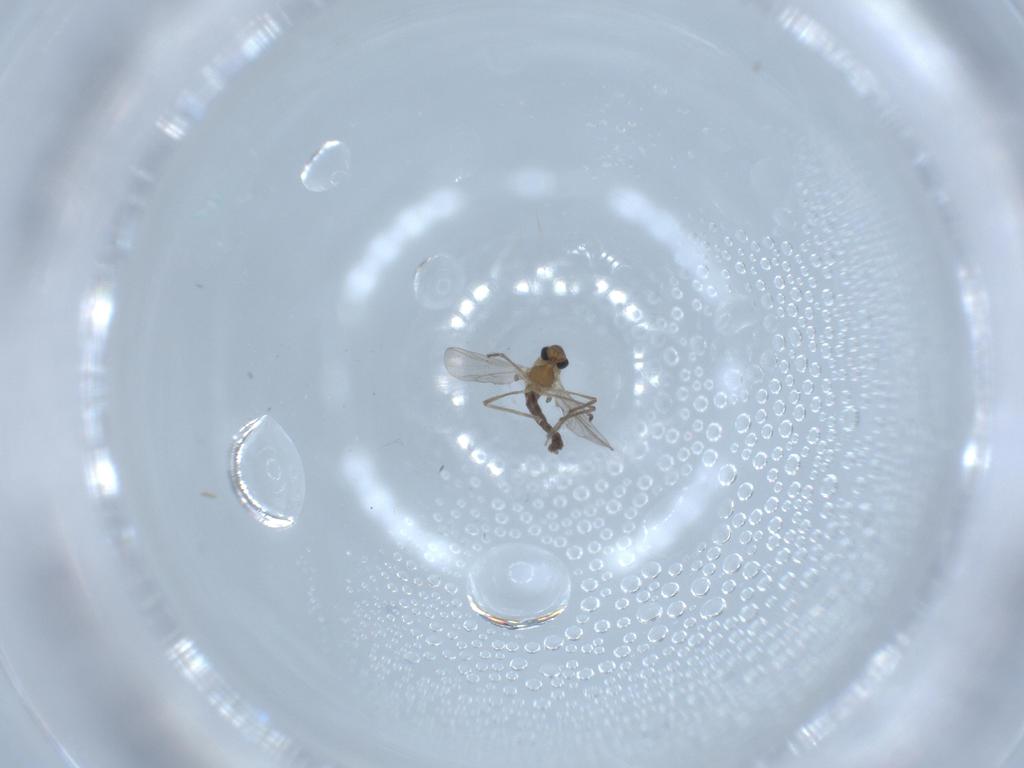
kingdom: Animalia
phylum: Arthropoda
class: Insecta
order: Diptera
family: Chironomidae
